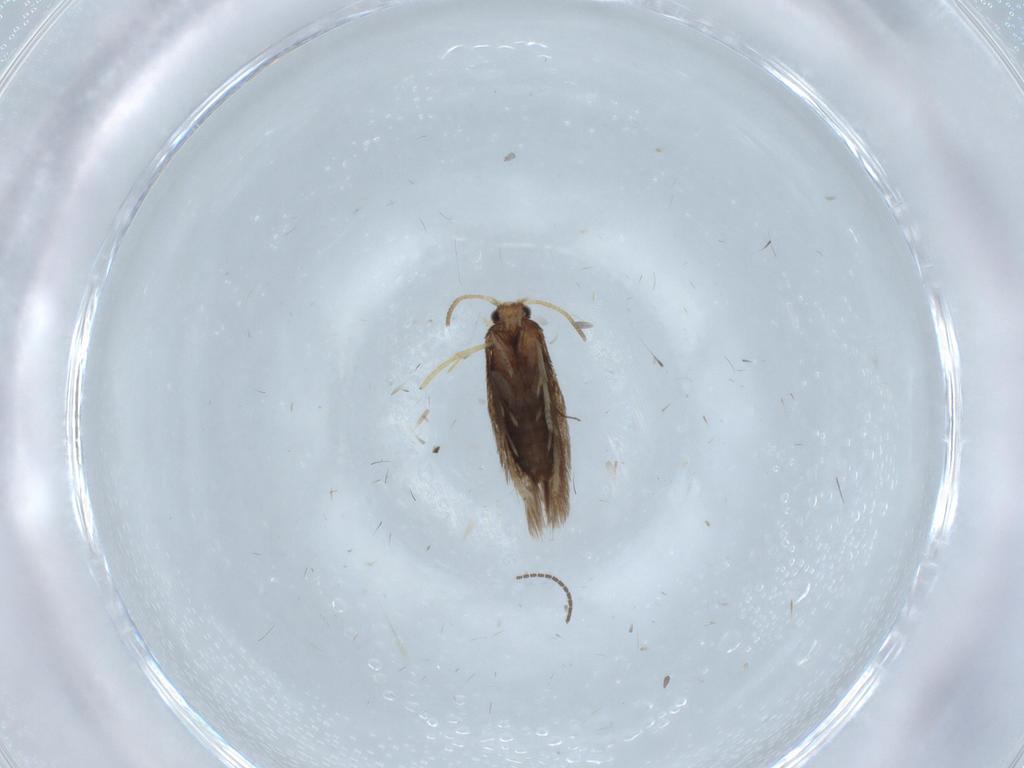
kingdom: Animalia
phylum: Arthropoda
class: Insecta
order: Lepidoptera
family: Nepticulidae
